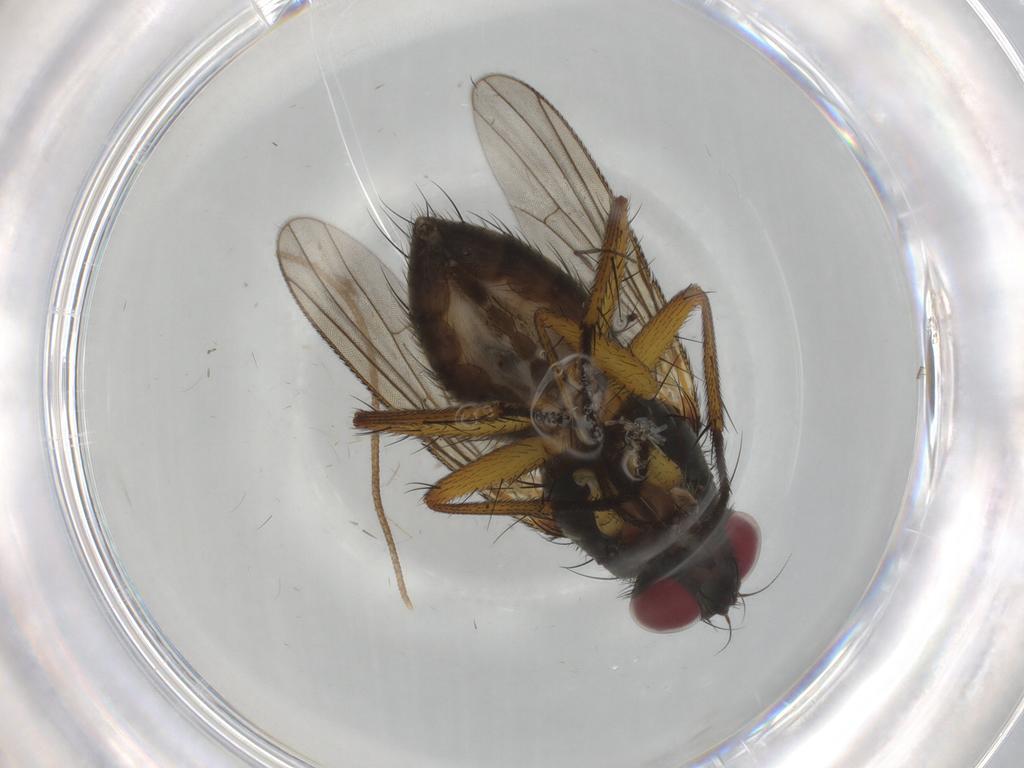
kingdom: Animalia
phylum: Arthropoda
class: Insecta
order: Diptera
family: Muscidae
